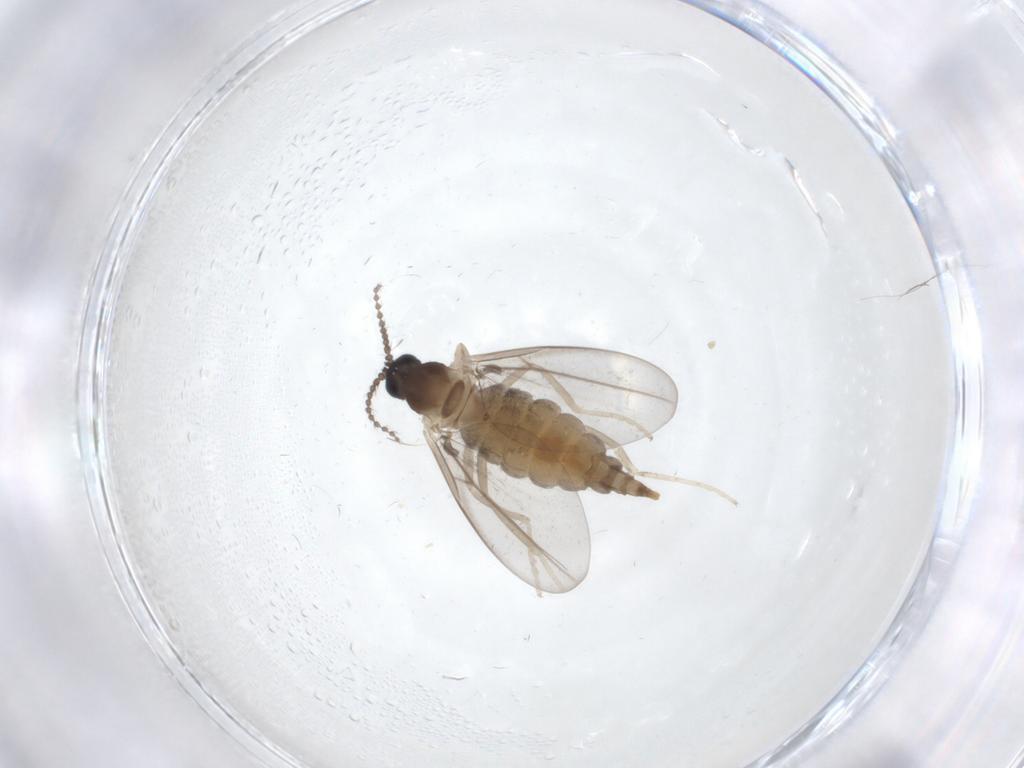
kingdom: Animalia
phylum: Arthropoda
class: Insecta
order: Diptera
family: Cecidomyiidae
